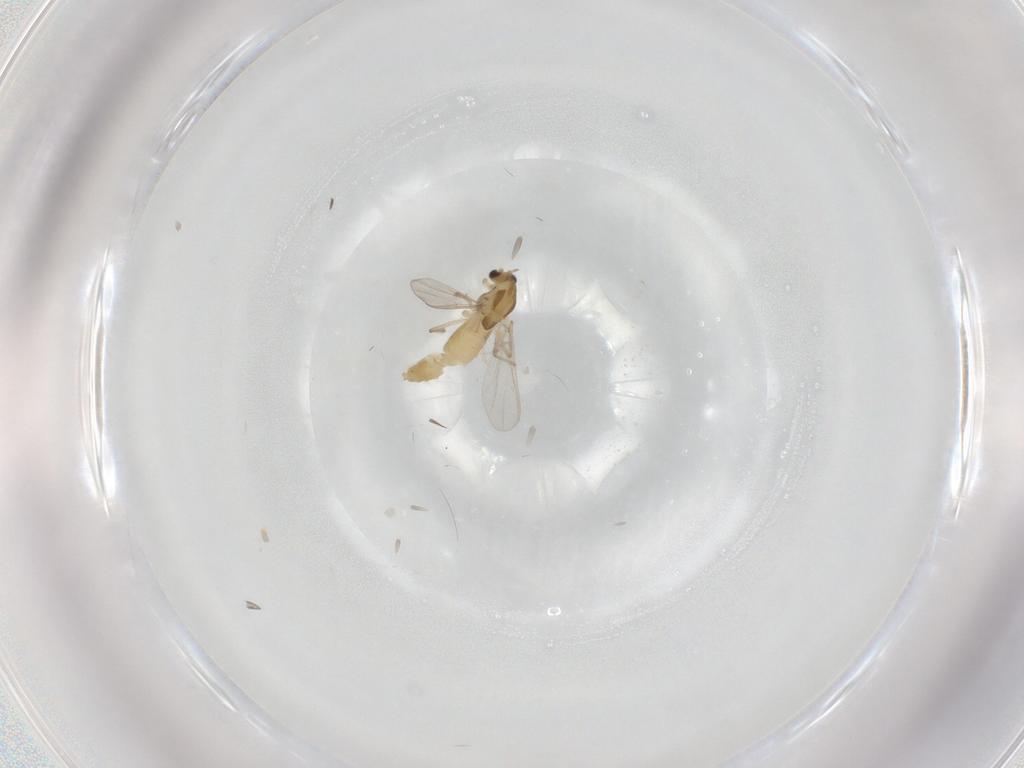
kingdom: Animalia
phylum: Arthropoda
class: Insecta
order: Diptera
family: Chironomidae
